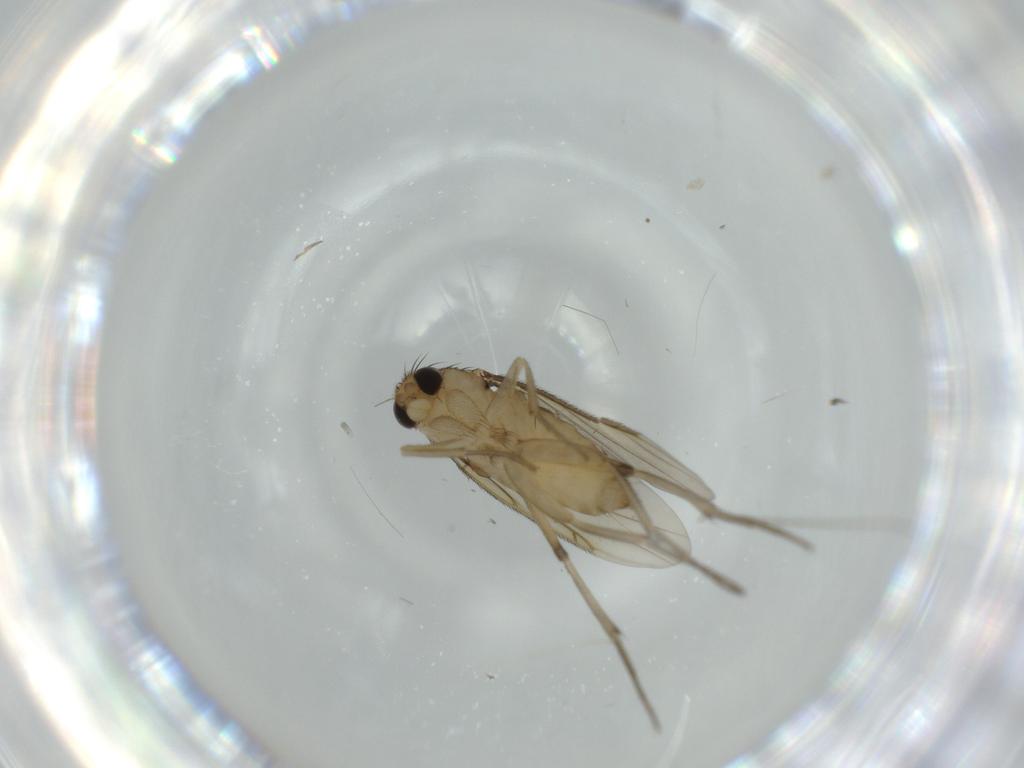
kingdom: Animalia
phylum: Arthropoda
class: Insecta
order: Diptera
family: Phoridae
